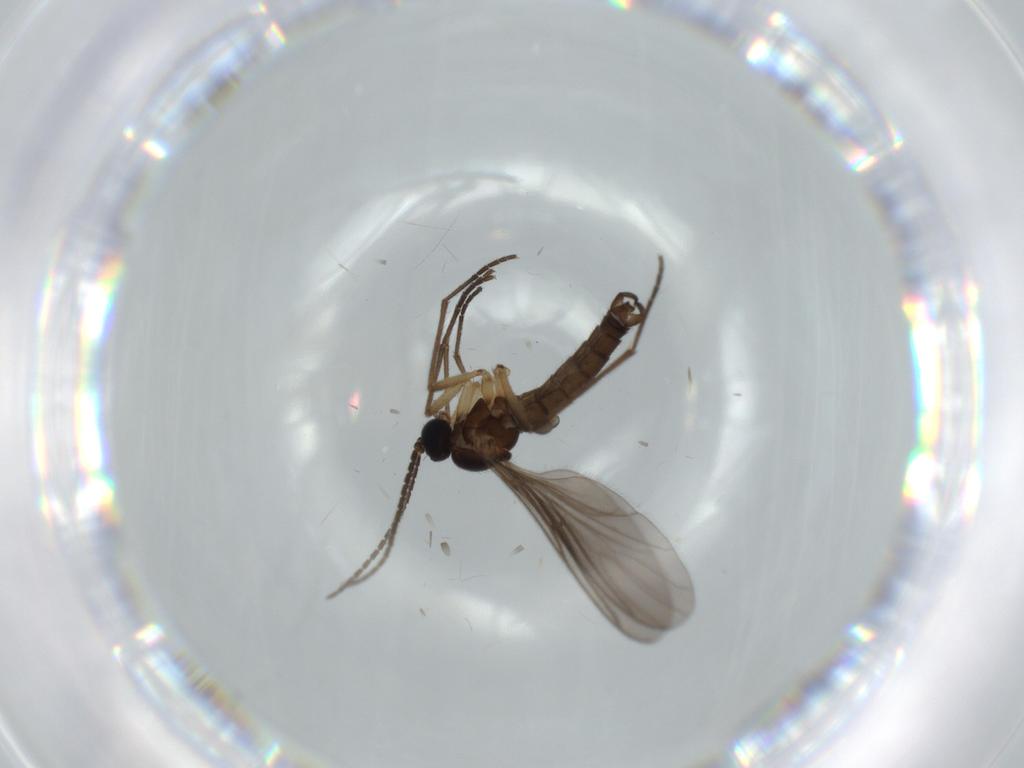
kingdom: Animalia
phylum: Arthropoda
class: Insecta
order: Diptera
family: Sciaridae
